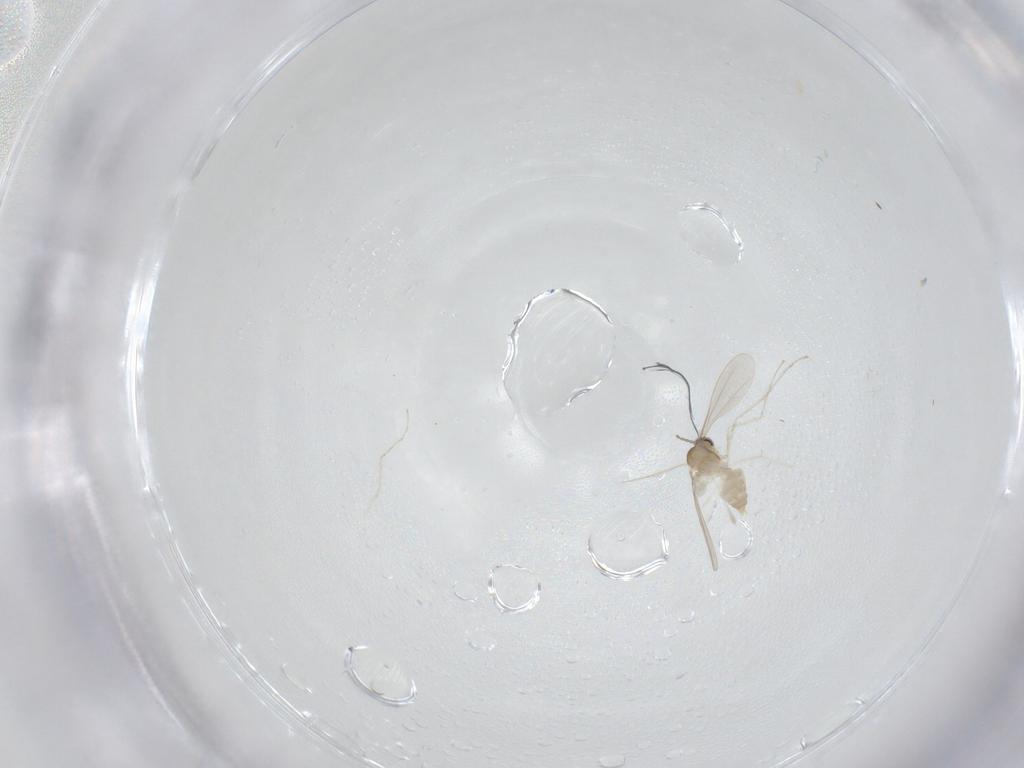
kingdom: Animalia
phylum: Arthropoda
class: Insecta
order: Diptera
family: Cecidomyiidae
